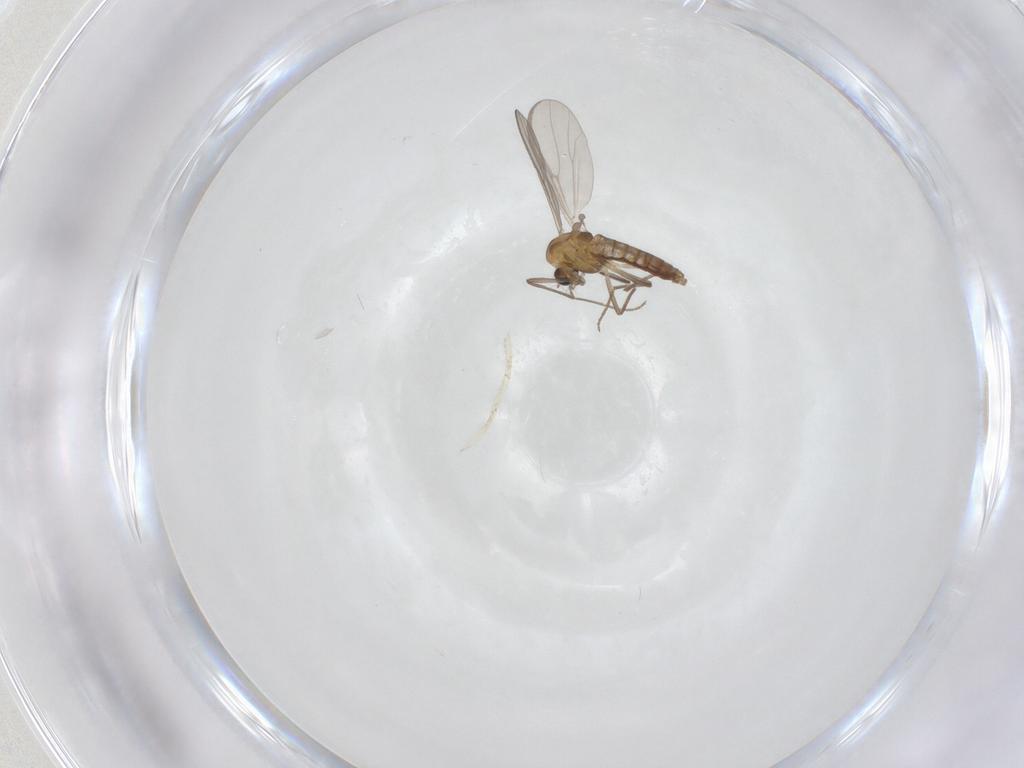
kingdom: Animalia
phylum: Arthropoda
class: Insecta
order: Diptera
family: Chironomidae
